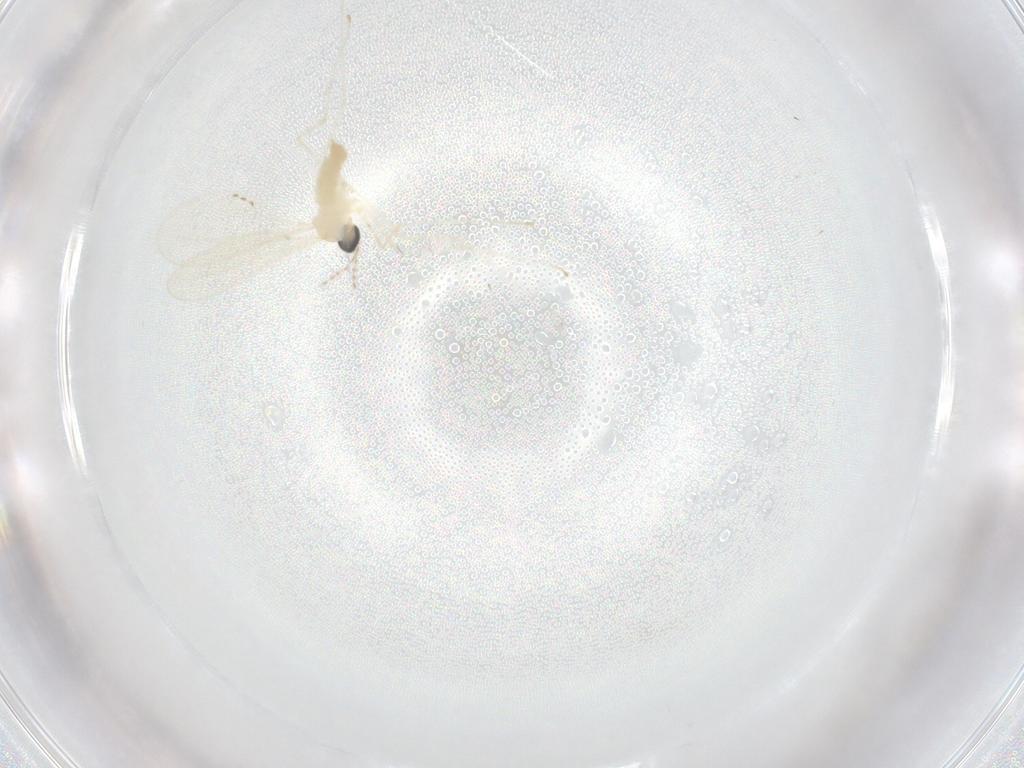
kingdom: Animalia
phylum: Arthropoda
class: Insecta
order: Diptera
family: Cecidomyiidae
